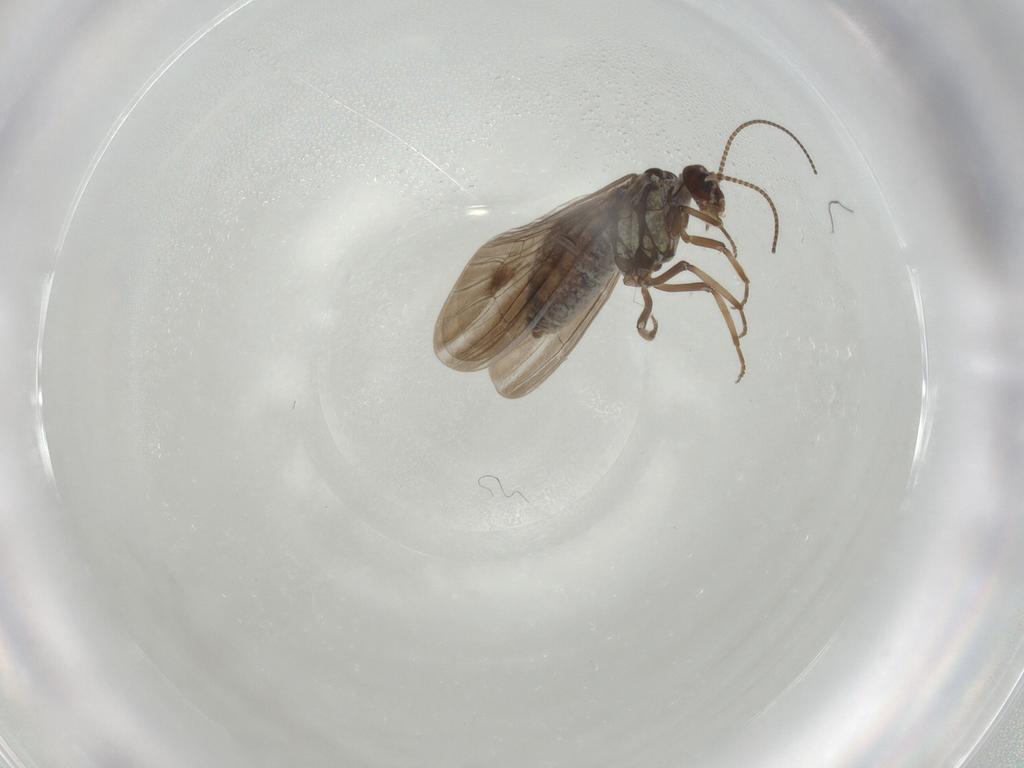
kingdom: Animalia
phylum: Arthropoda
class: Insecta
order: Neuroptera
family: Coniopterygidae
